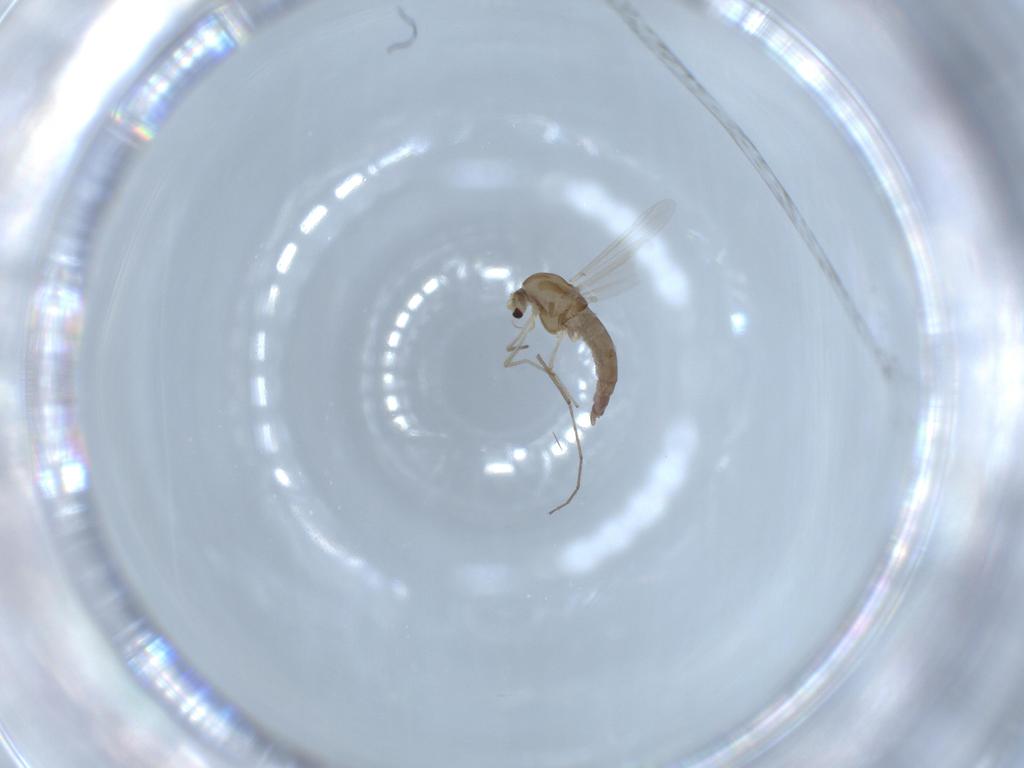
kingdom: Animalia
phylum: Arthropoda
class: Insecta
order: Diptera
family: Chironomidae
